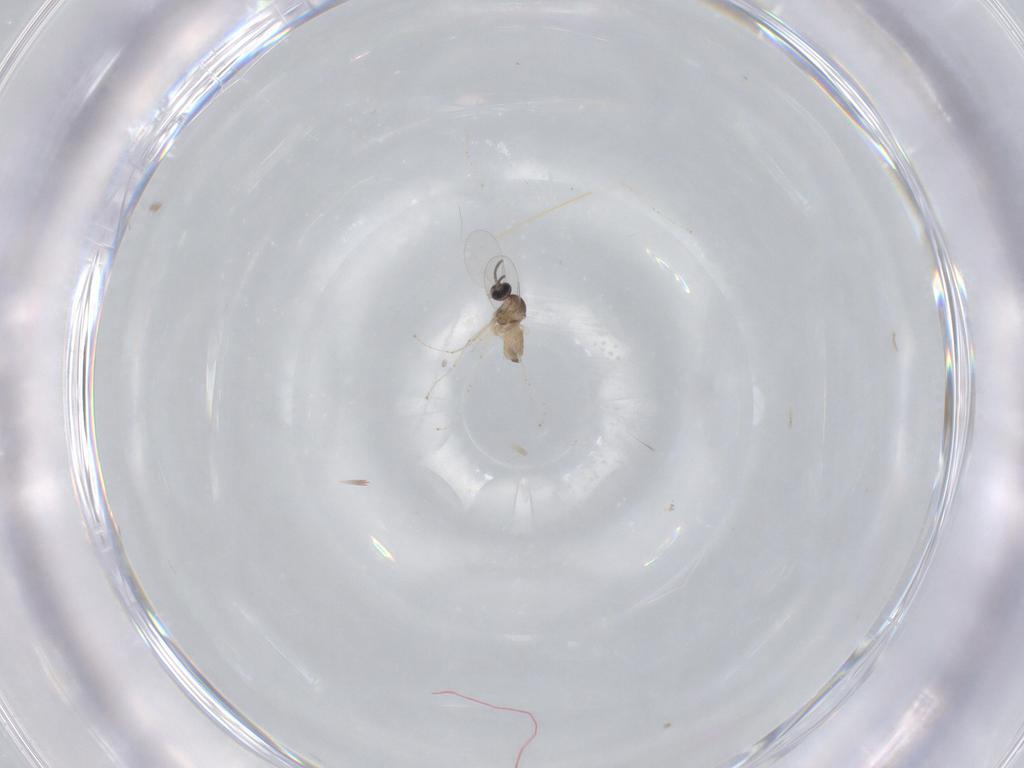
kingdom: Animalia
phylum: Arthropoda
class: Insecta
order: Diptera
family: Cecidomyiidae
